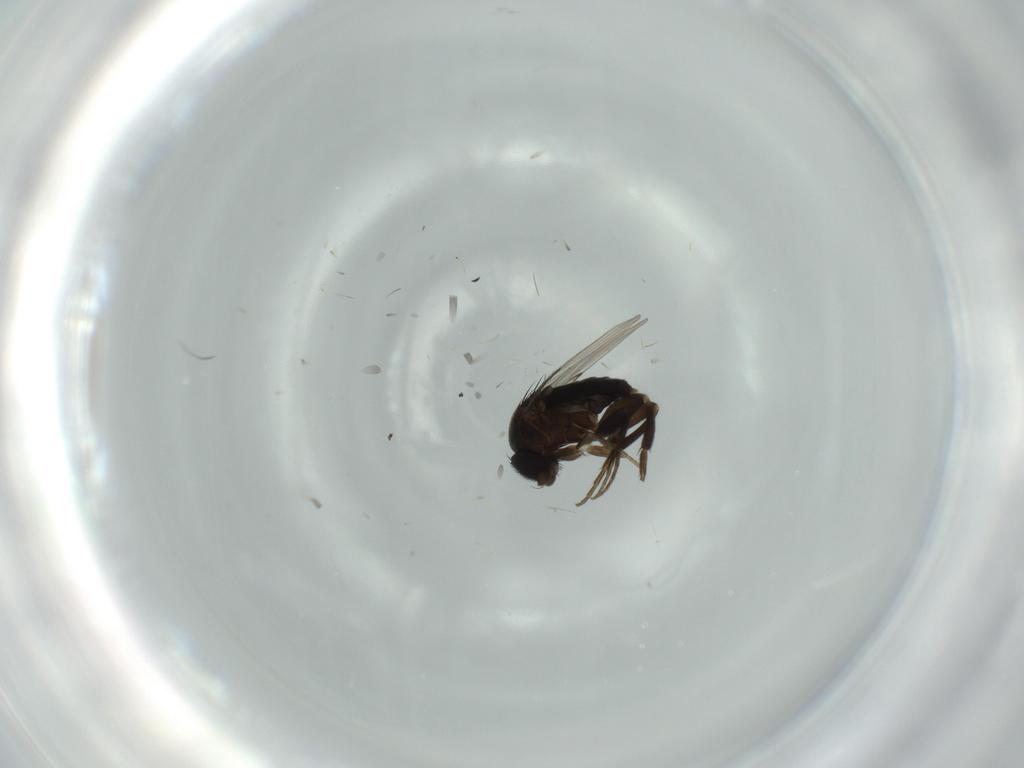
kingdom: Animalia
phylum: Arthropoda
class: Insecta
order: Diptera
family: Phoridae
